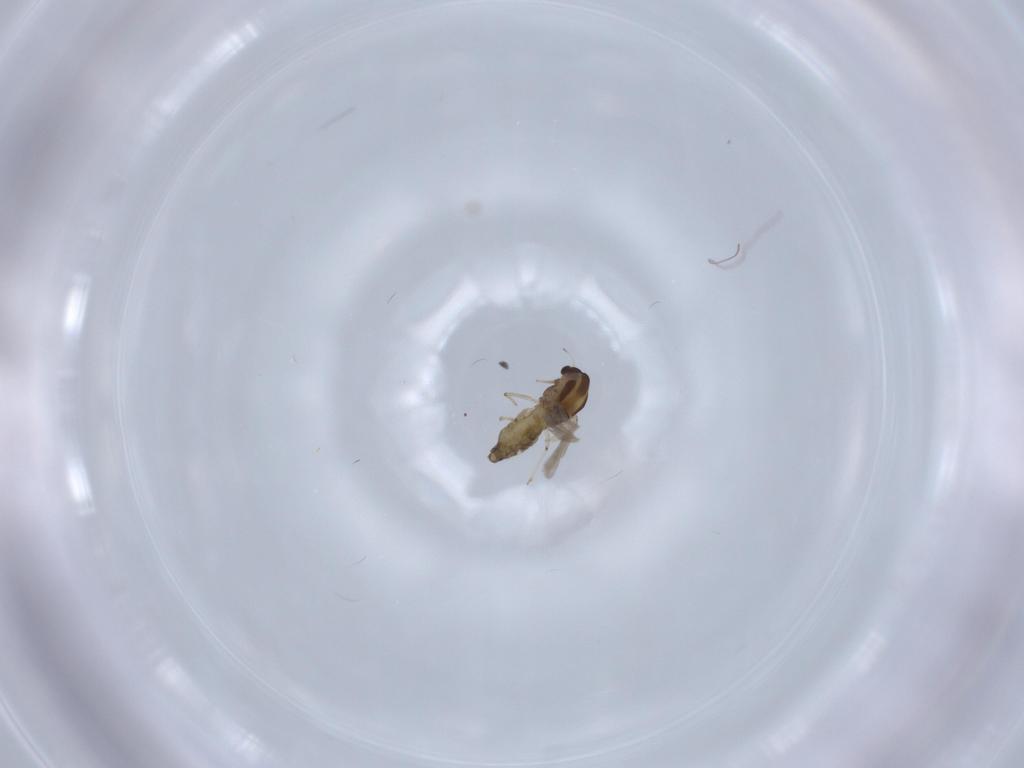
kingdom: Animalia
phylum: Arthropoda
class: Insecta
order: Diptera
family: Chironomidae
